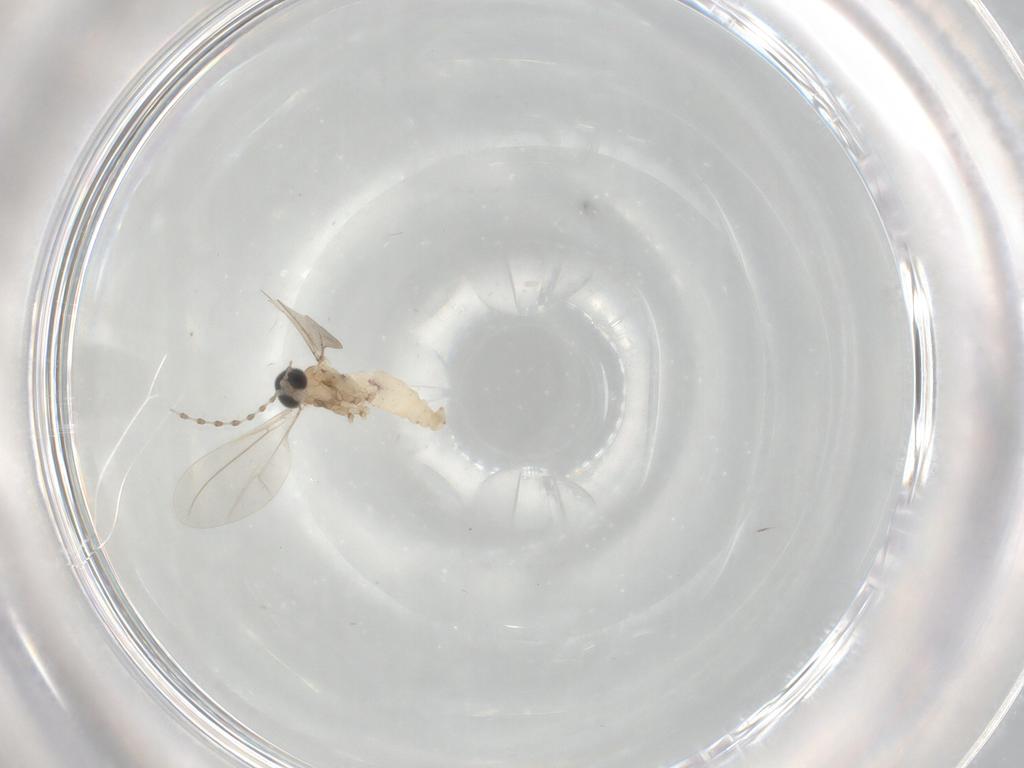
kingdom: Animalia
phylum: Arthropoda
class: Insecta
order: Diptera
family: Cecidomyiidae
